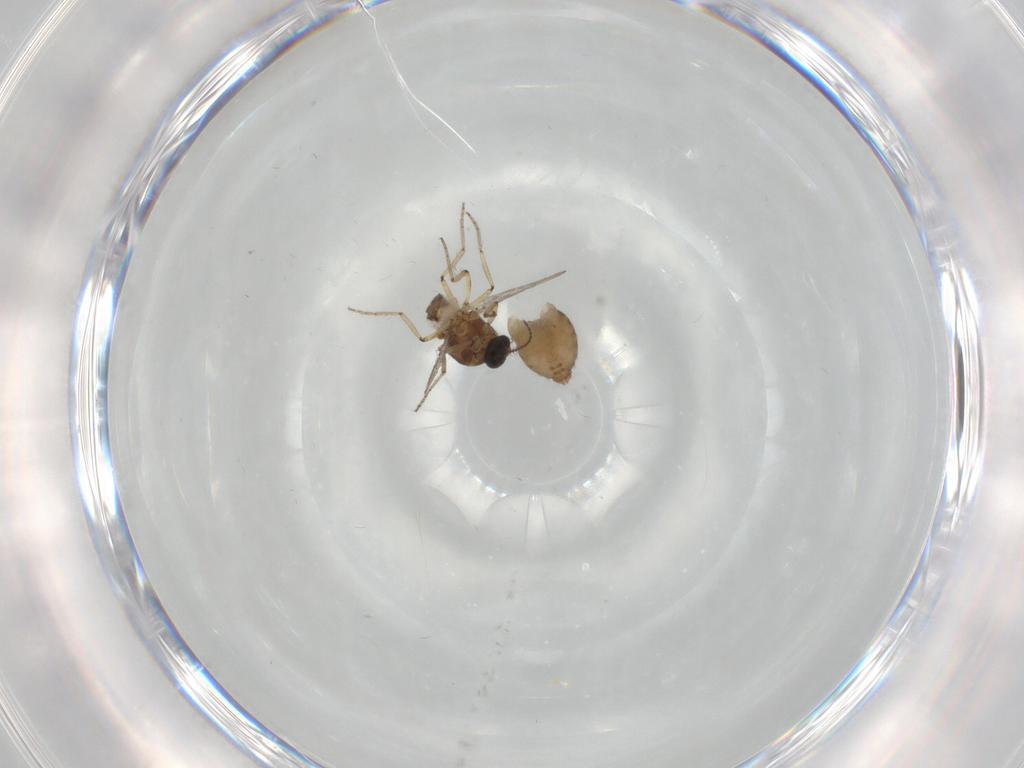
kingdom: Animalia
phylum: Arthropoda
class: Insecta
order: Diptera
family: Ceratopogonidae
